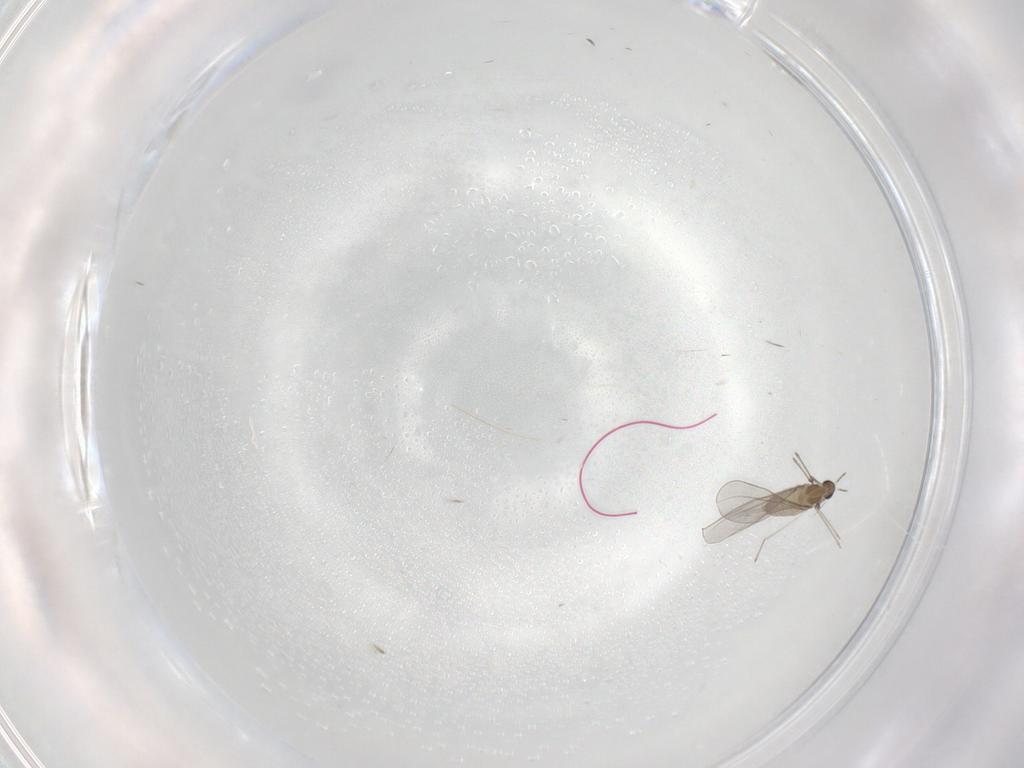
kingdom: Animalia
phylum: Arthropoda
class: Insecta
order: Diptera
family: Cecidomyiidae
